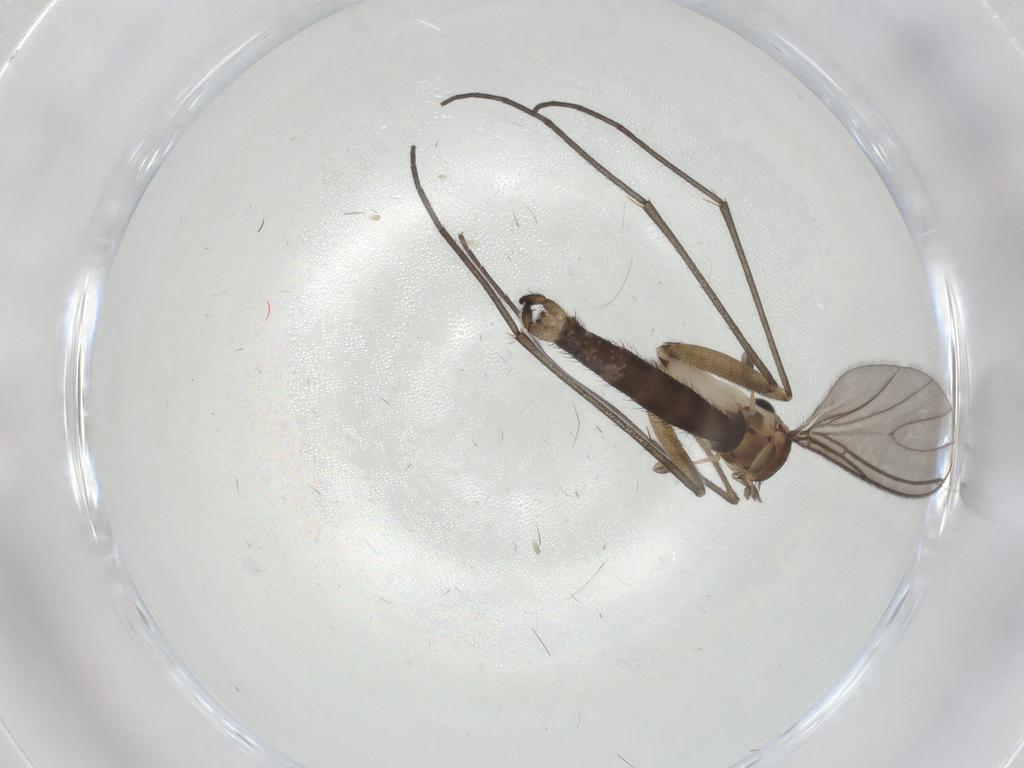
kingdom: Animalia
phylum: Arthropoda
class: Insecta
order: Diptera
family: Sciaridae
